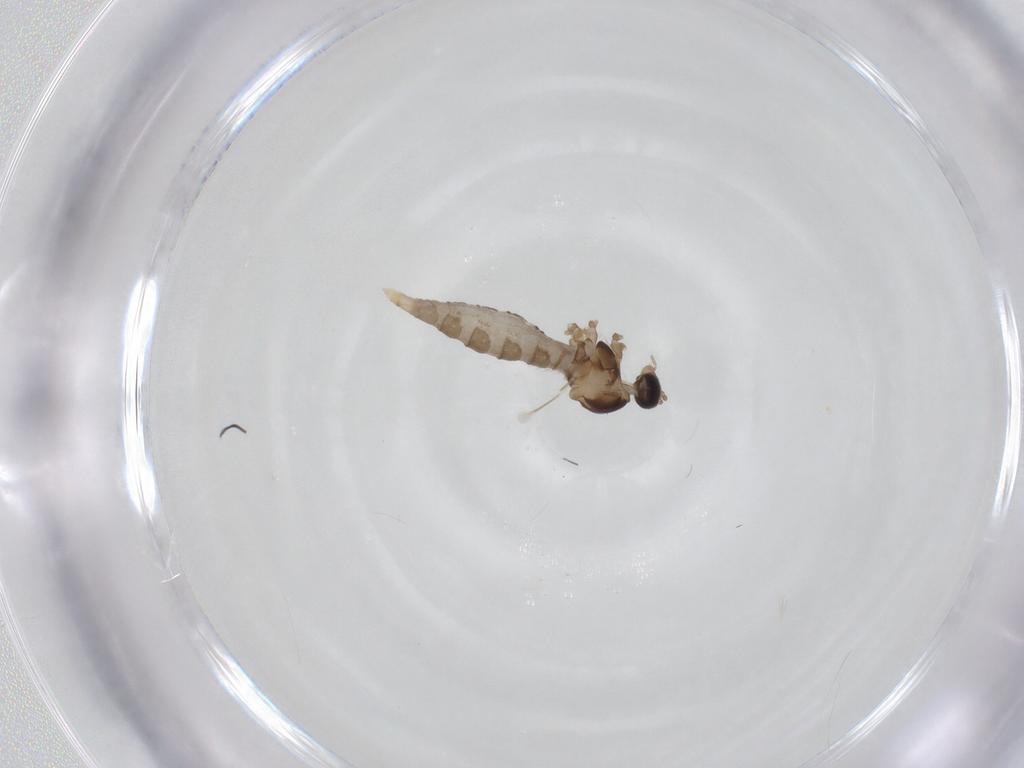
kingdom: Animalia
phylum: Arthropoda
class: Insecta
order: Diptera
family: Cecidomyiidae
